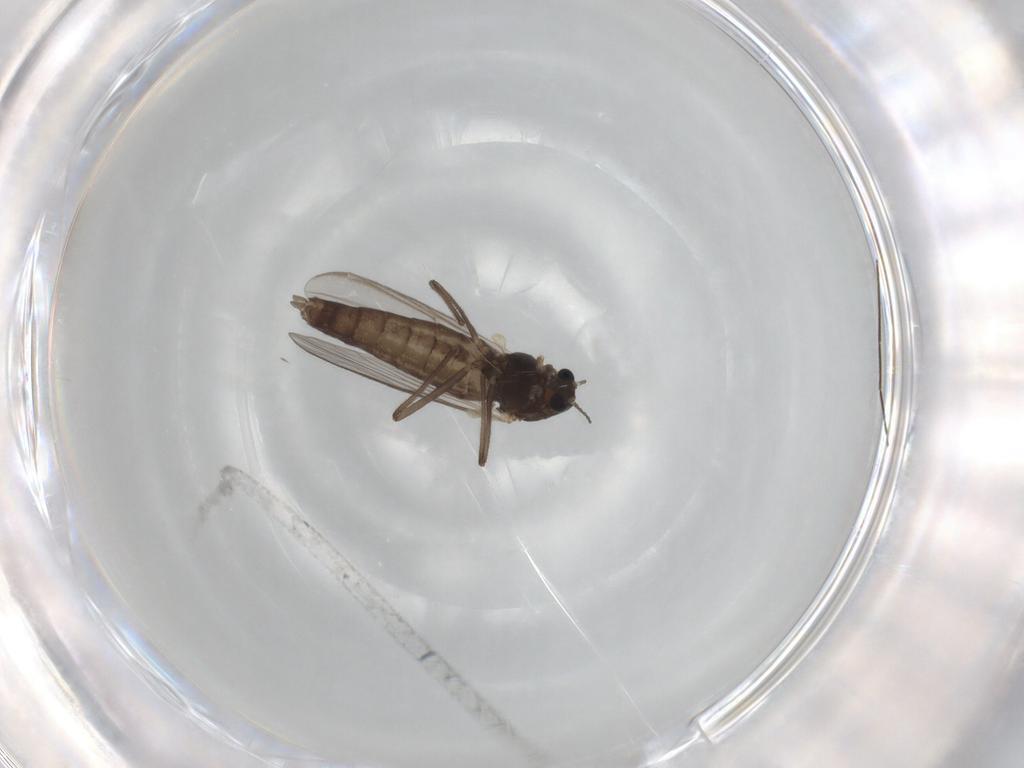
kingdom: Animalia
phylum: Arthropoda
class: Insecta
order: Diptera
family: Chironomidae
